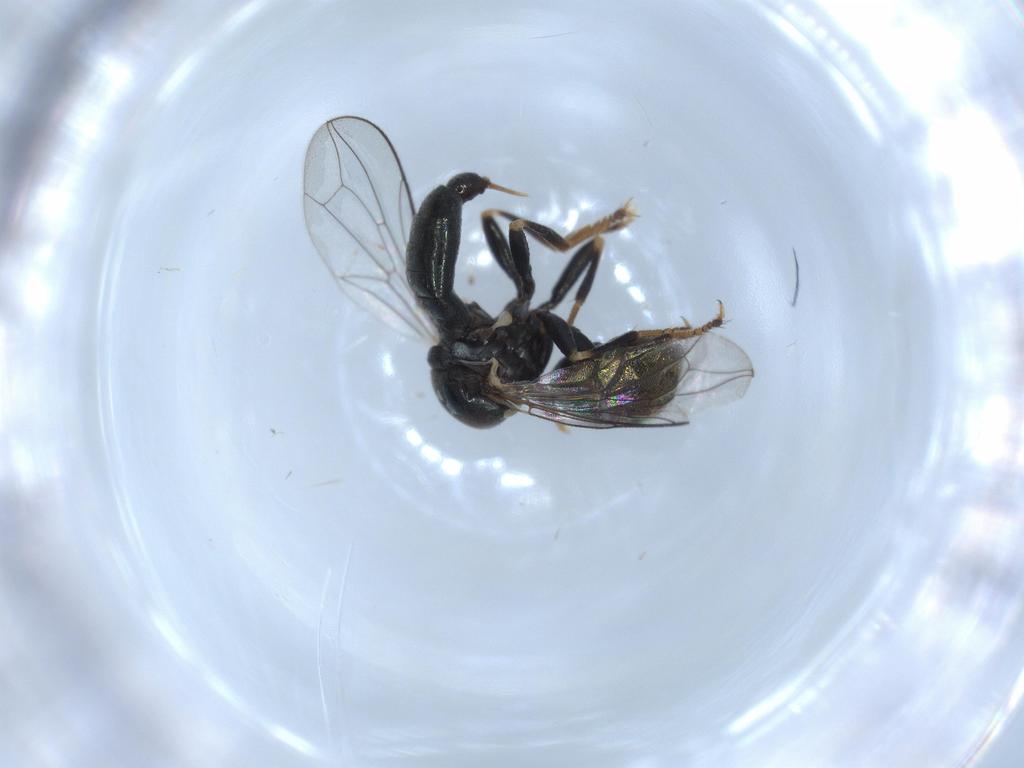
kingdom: Animalia
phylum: Arthropoda
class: Insecta
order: Diptera
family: Pipunculidae
